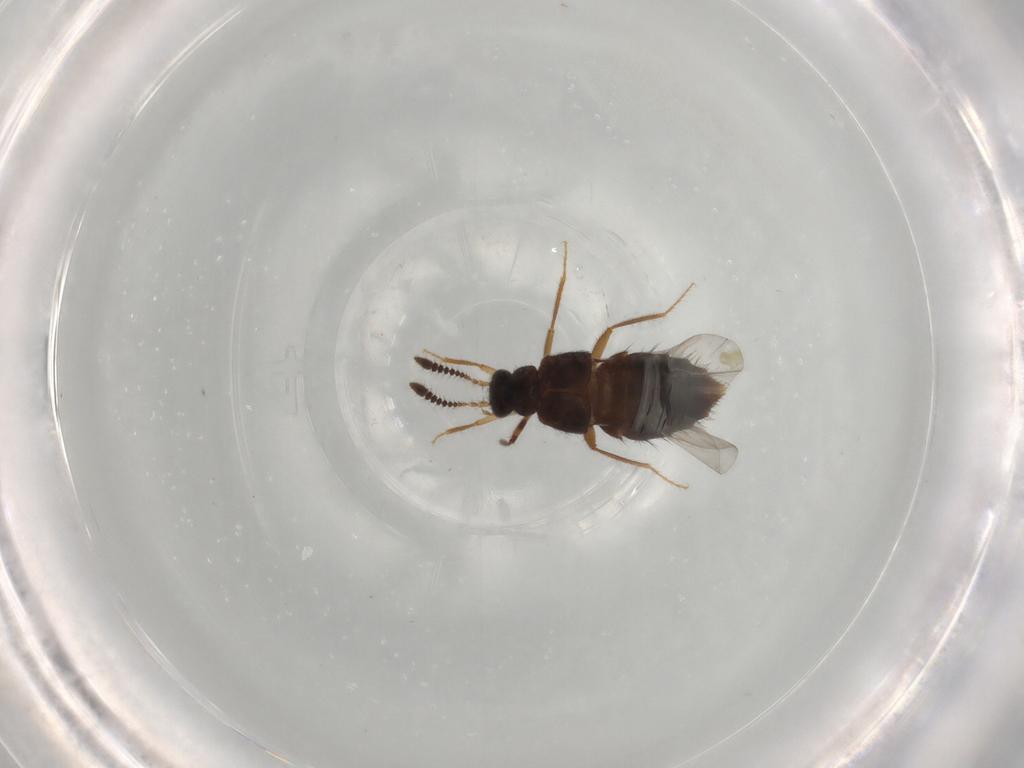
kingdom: Animalia
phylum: Arthropoda
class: Insecta
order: Coleoptera
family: Staphylinidae
